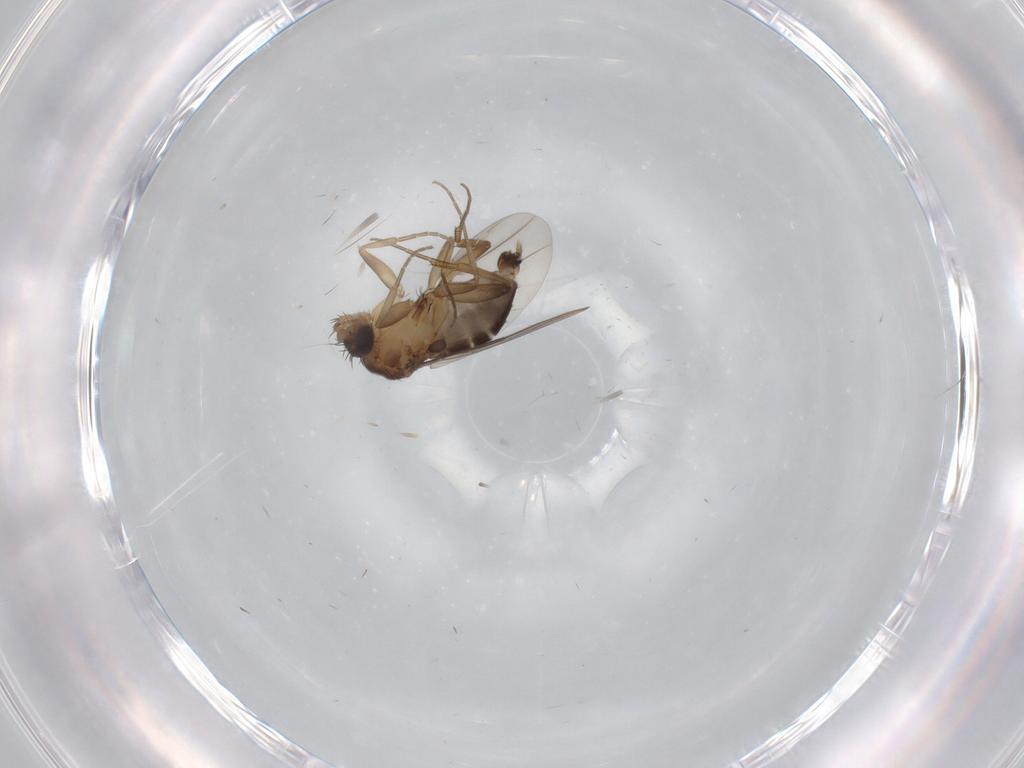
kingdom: Animalia
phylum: Arthropoda
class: Insecta
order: Diptera
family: Phoridae
